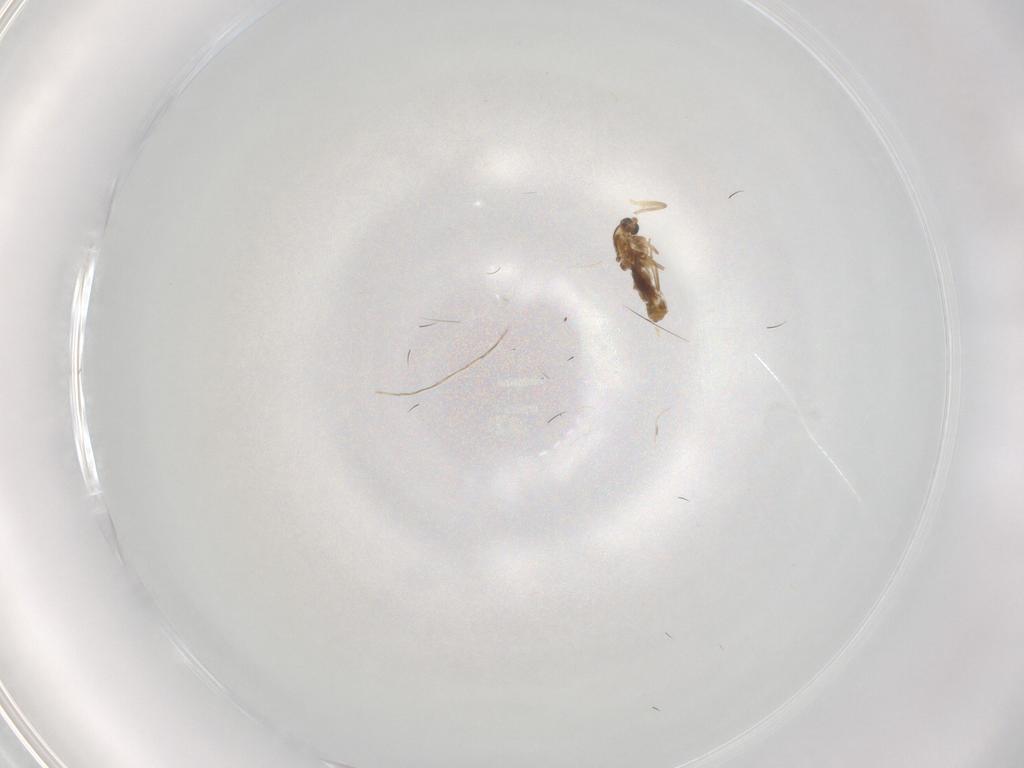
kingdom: Animalia
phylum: Arthropoda
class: Insecta
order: Diptera
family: Chironomidae
